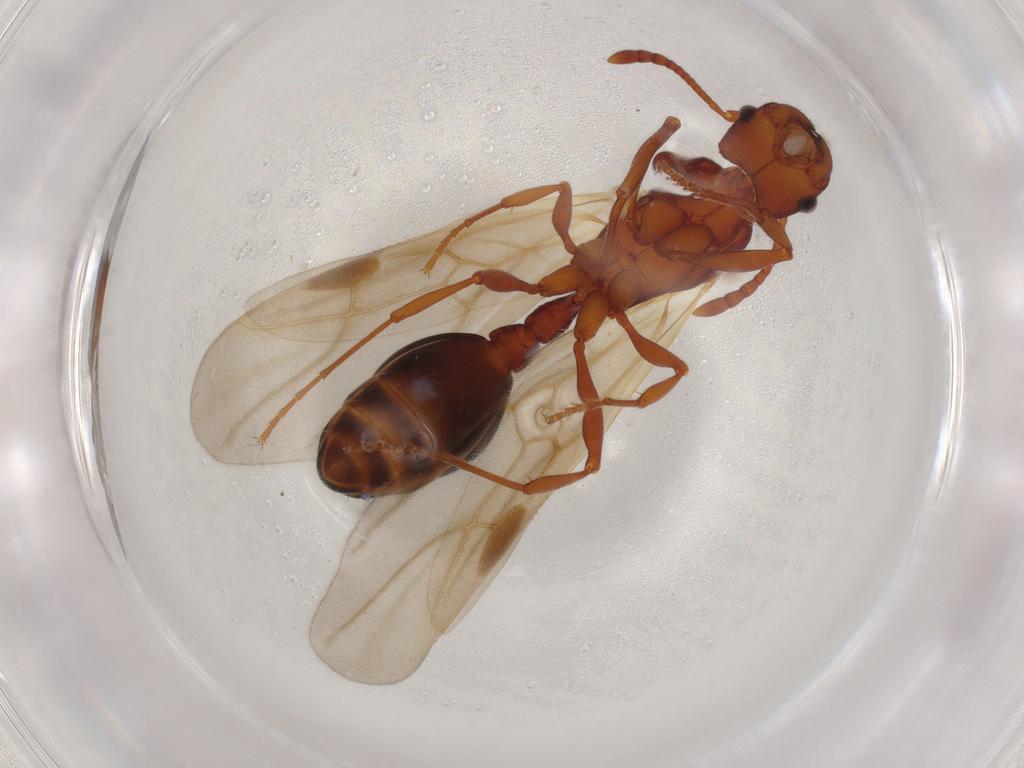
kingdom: Animalia
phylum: Arthropoda
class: Insecta
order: Hymenoptera
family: Formicidae
